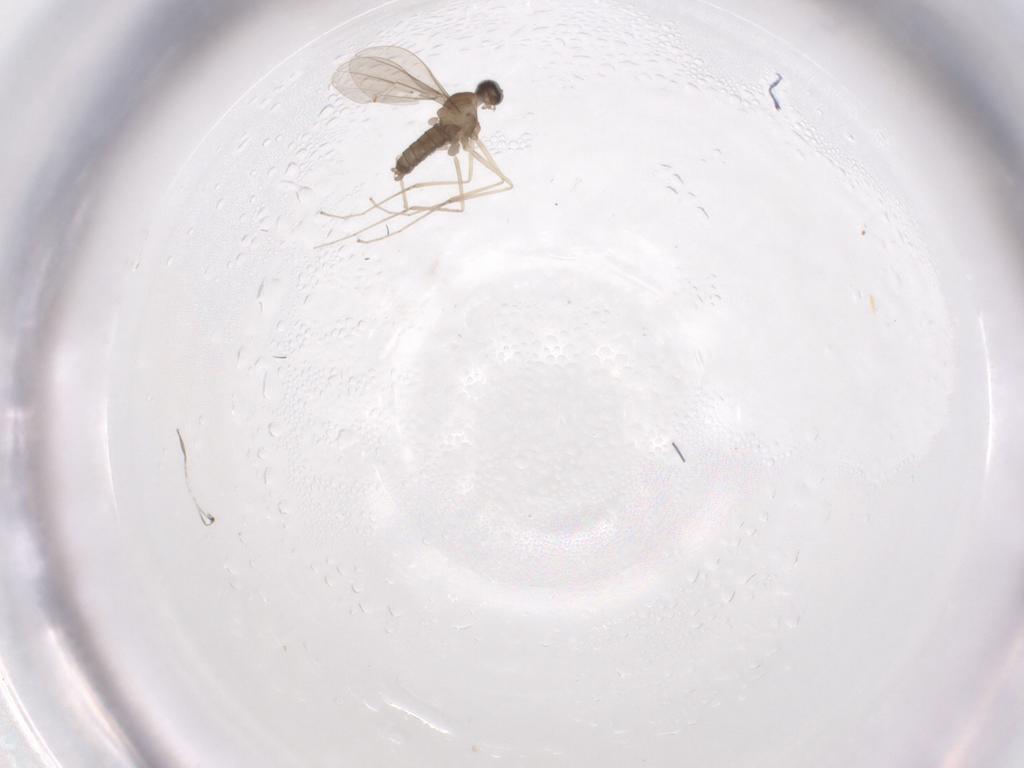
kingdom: Animalia
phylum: Arthropoda
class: Insecta
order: Diptera
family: Cecidomyiidae
